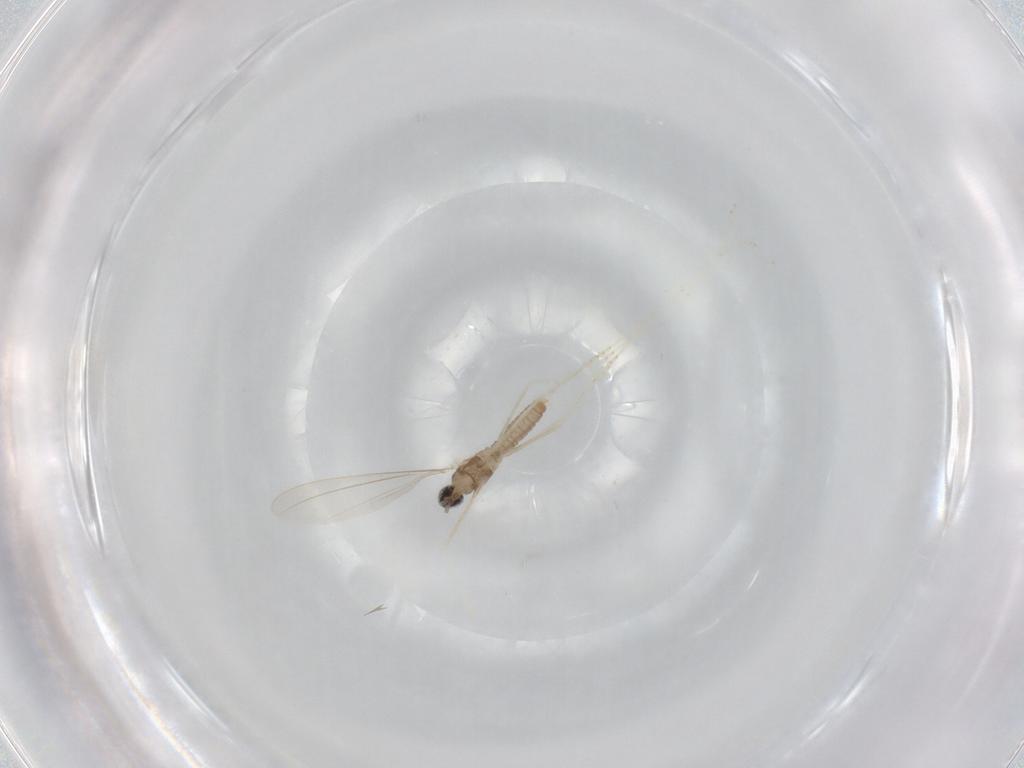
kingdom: Animalia
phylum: Arthropoda
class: Insecta
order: Diptera
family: Cecidomyiidae
